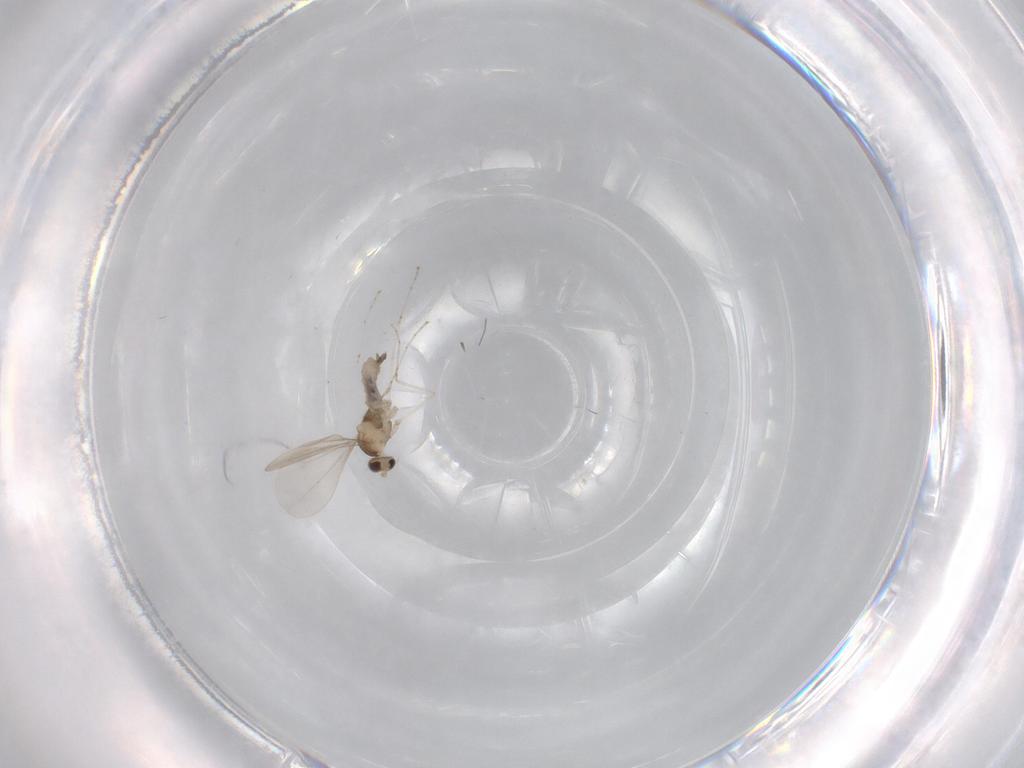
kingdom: Animalia
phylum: Arthropoda
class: Insecta
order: Diptera
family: Cecidomyiidae
